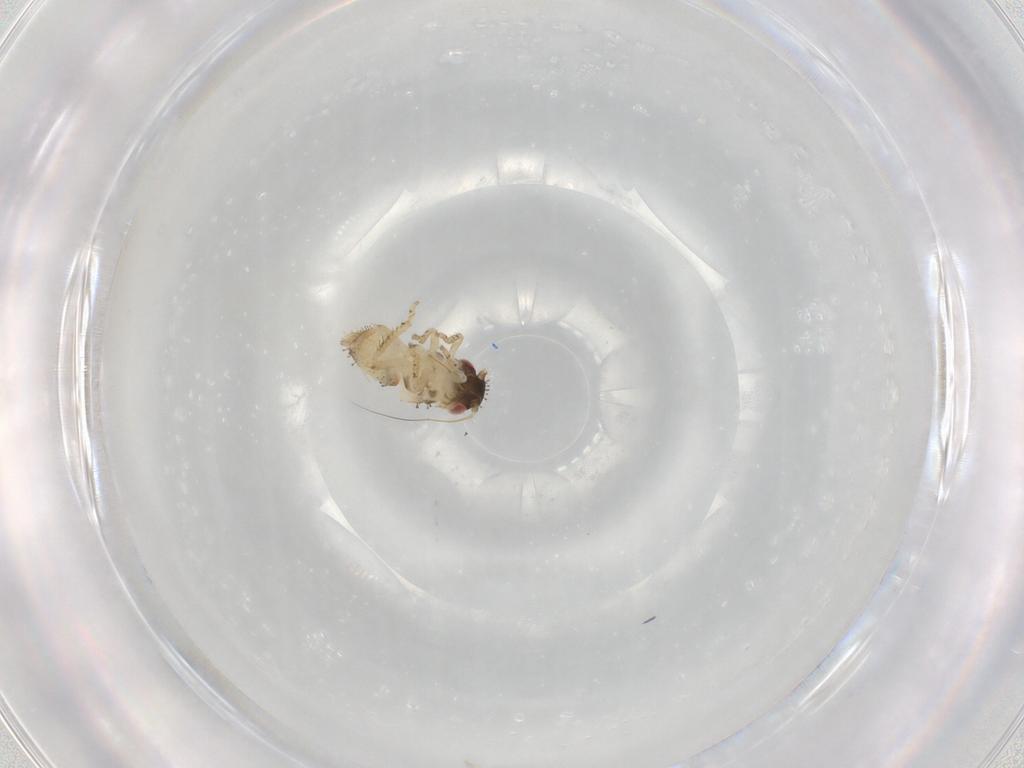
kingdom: Animalia
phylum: Arthropoda
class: Insecta
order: Hemiptera
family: Cicadellidae
